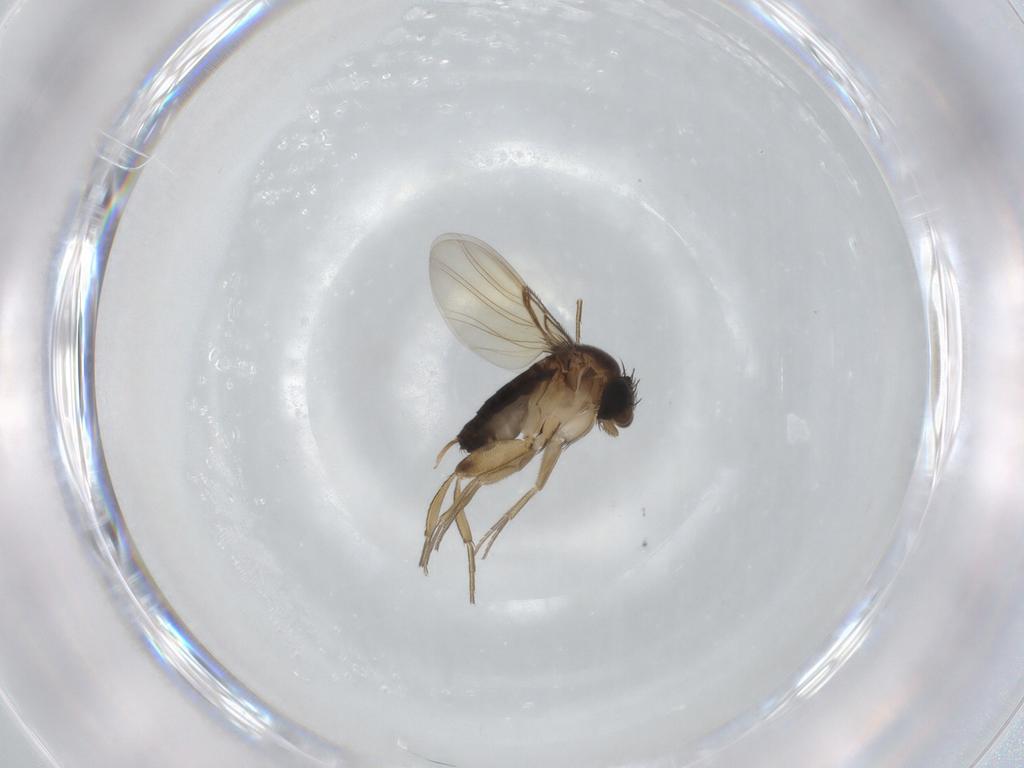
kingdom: Animalia
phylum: Arthropoda
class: Insecta
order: Diptera
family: Phoridae
